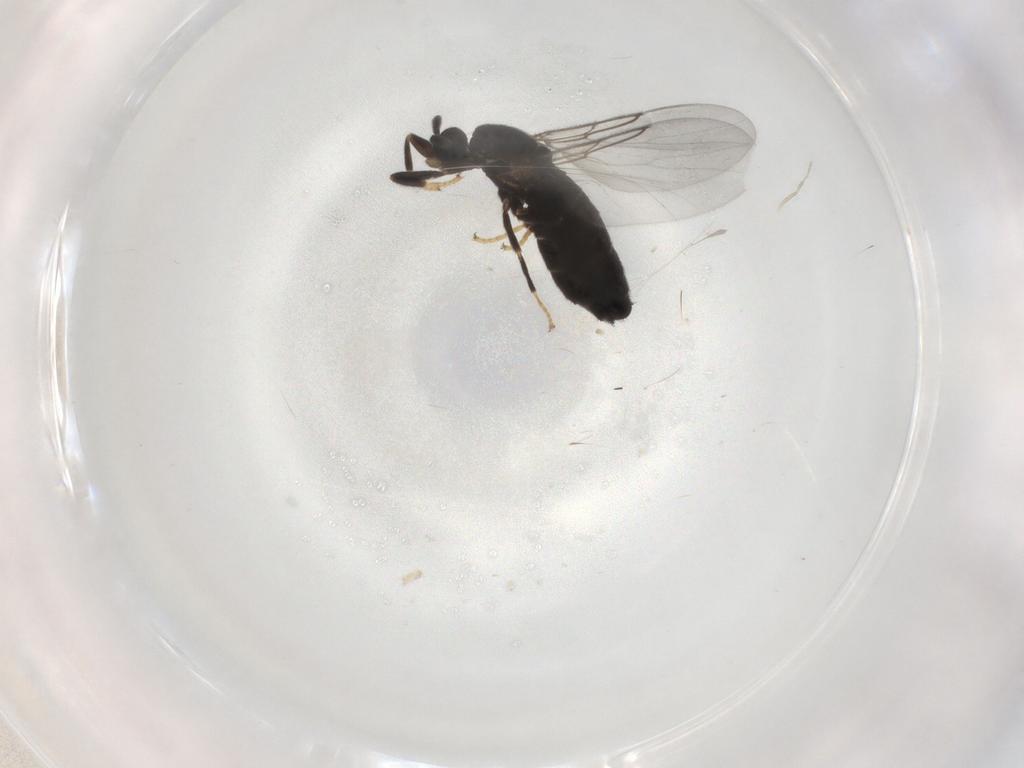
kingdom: Animalia
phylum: Arthropoda
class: Insecta
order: Diptera
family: Scatopsidae
